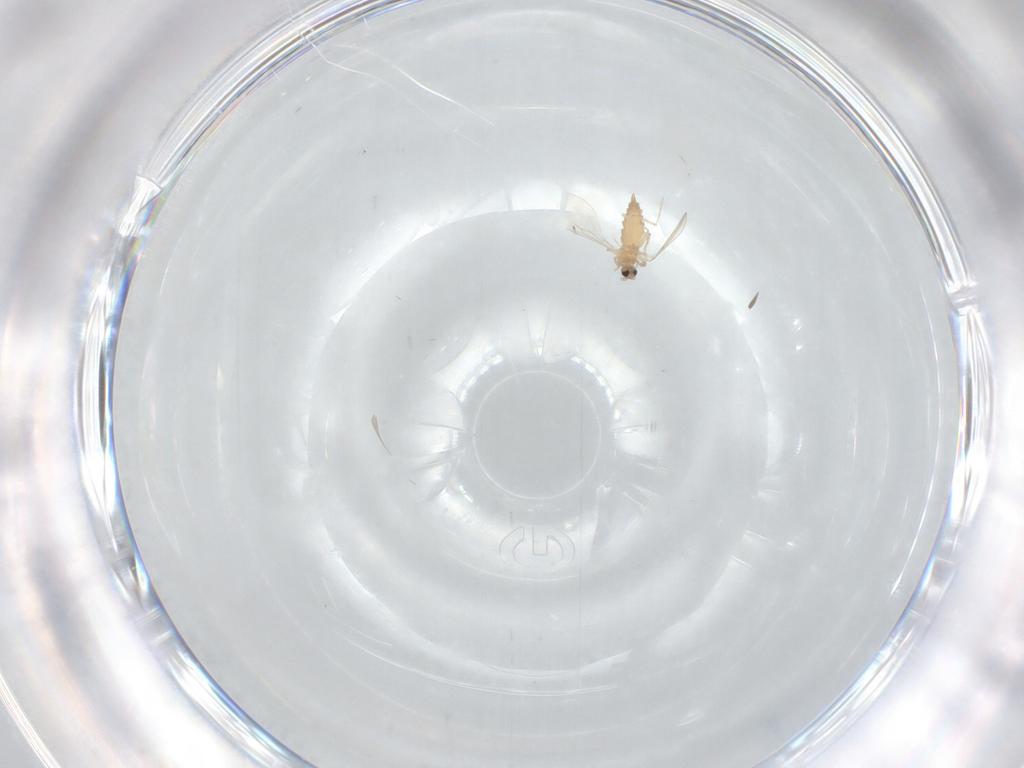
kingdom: Animalia
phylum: Arthropoda
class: Insecta
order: Diptera
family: Cecidomyiidae
